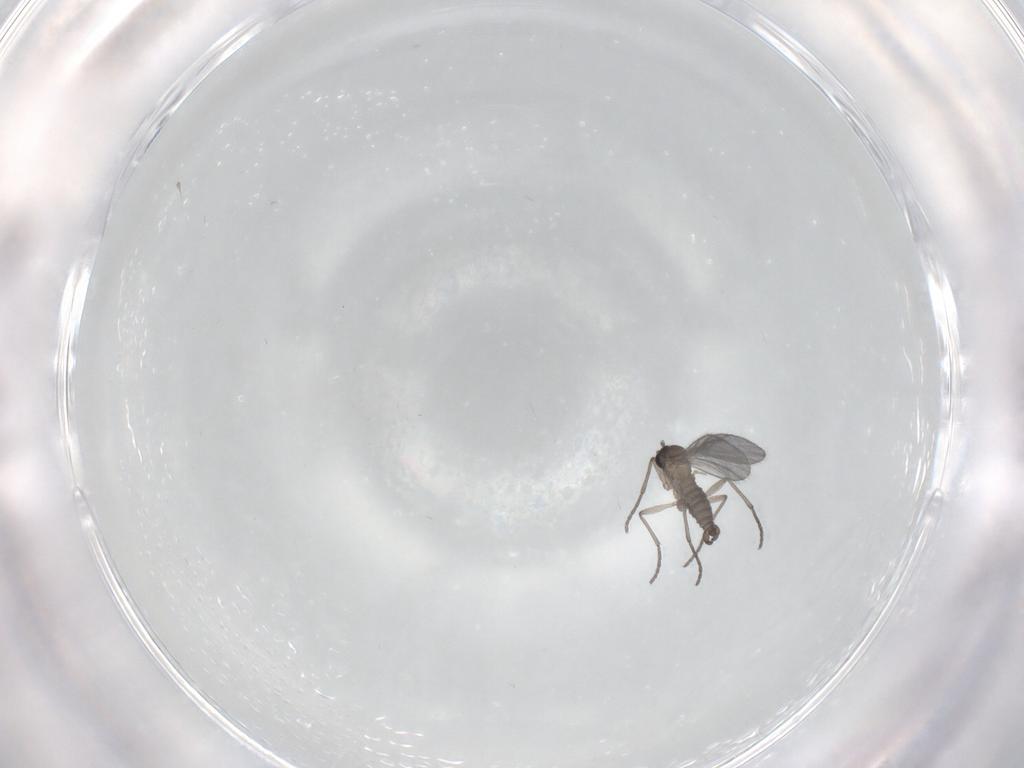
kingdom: Animalia
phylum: Arthropoda
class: Insecta
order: Diptera
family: Sciaridae
